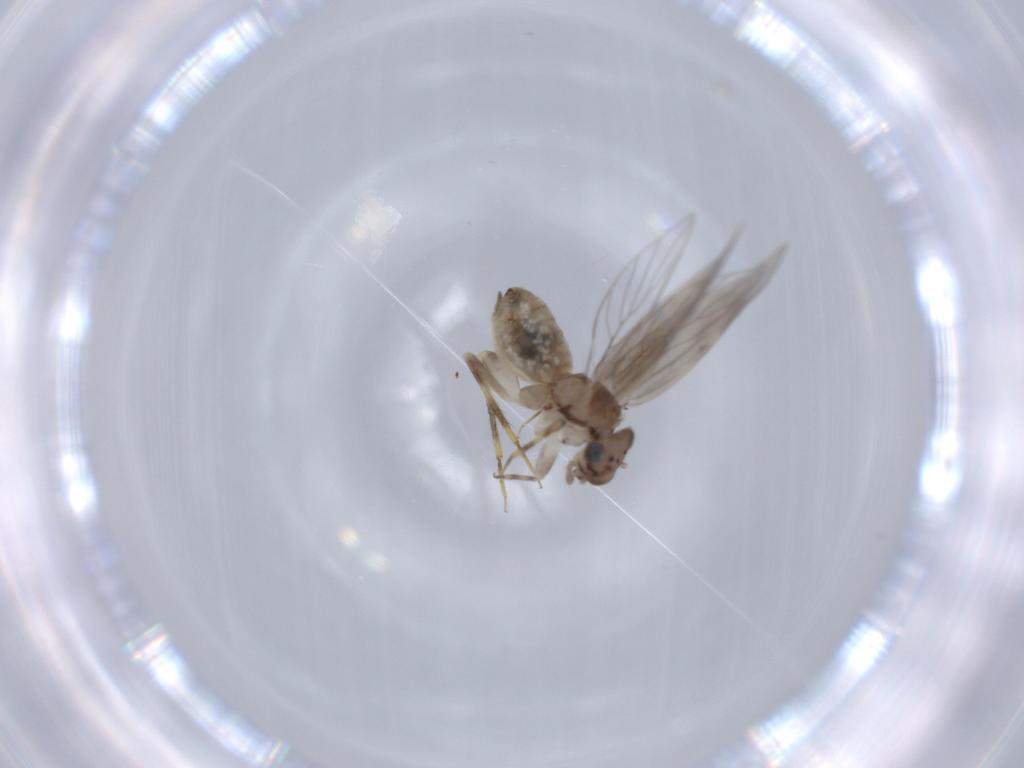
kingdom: Animalia
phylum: Arthropoda
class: Insecta
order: Psocodea
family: Lepidopsocidae
